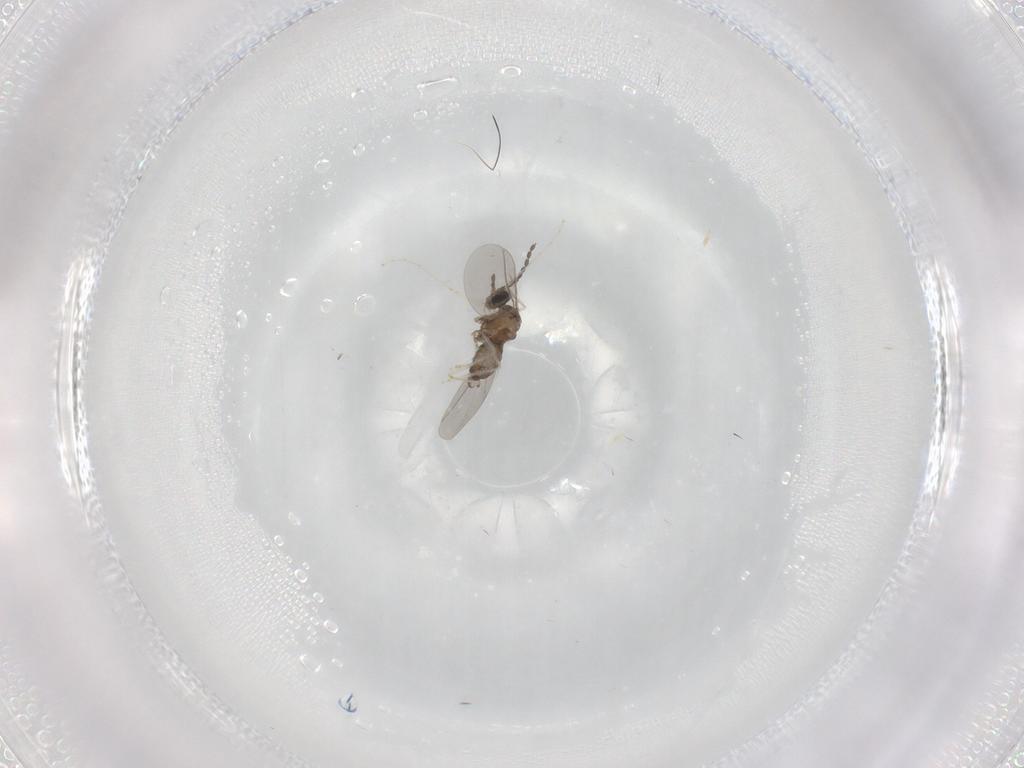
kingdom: Animalia
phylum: Arthropoda
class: Insecta
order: Diptera
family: Cecidomyiidae
